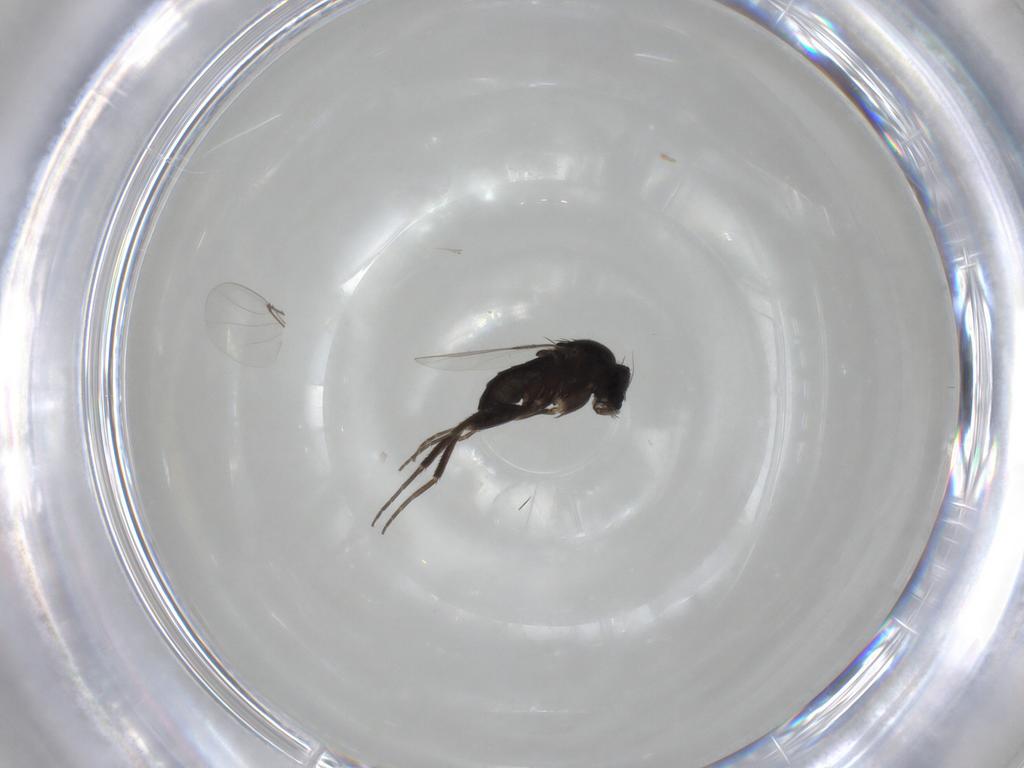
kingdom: Animalia
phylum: Arthropoda
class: Insecta
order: Diptera
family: Phoridae
